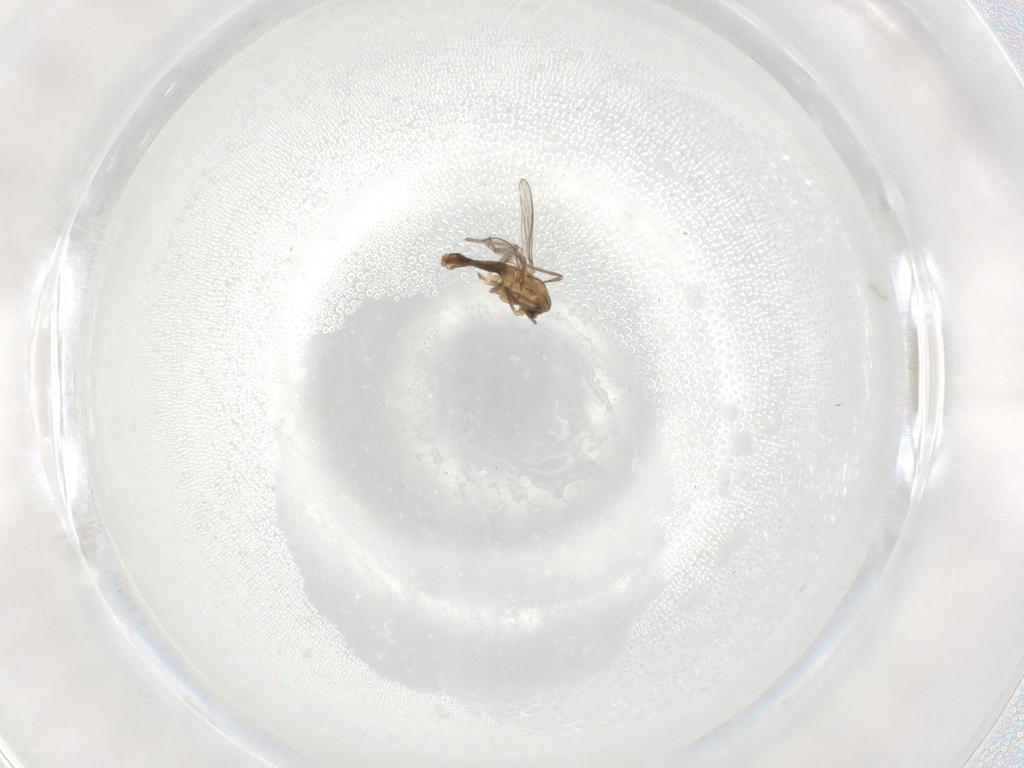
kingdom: Animalia
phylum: Arthropoda
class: Insecta
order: Diptera
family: Chironomidae
